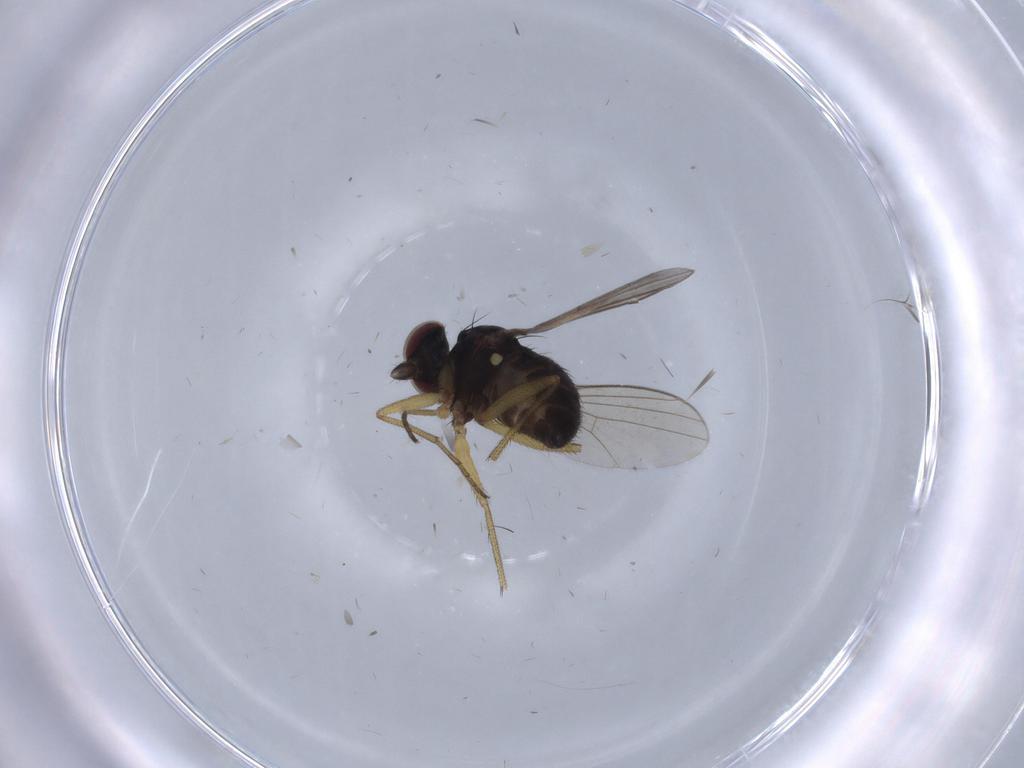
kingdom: Animalia
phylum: Arthropoda
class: Insecta
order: Diptera
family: Dolichopodidae
